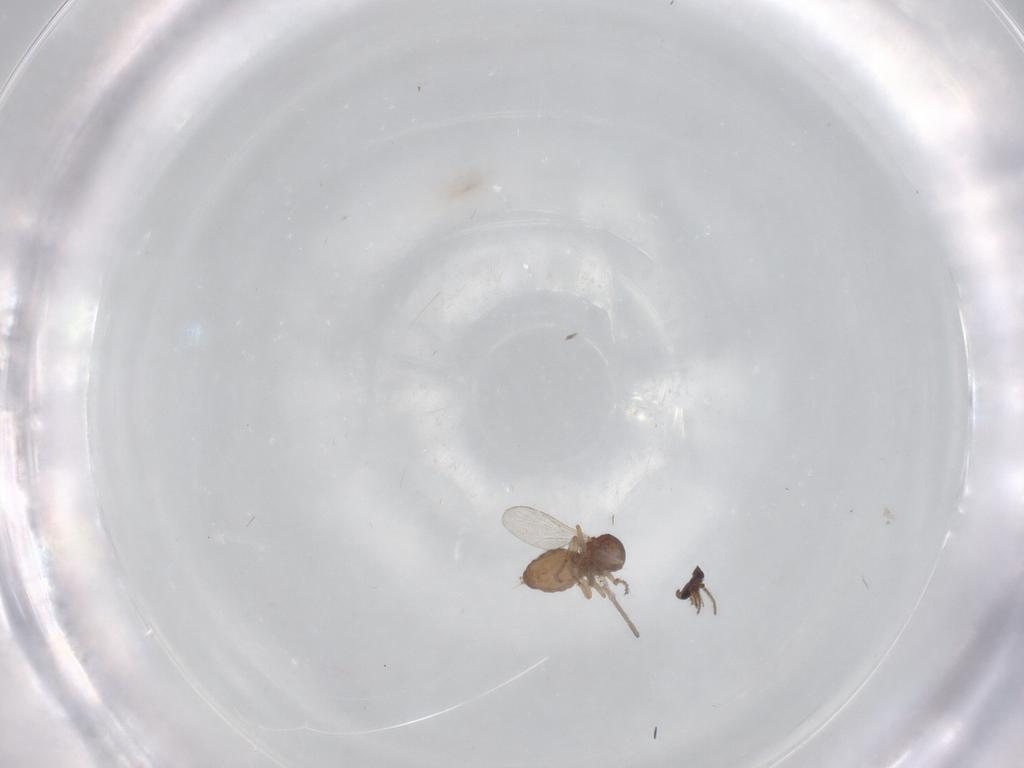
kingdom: Animalia
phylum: Arthropoda
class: Insecta
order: Diptera
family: Ceratopogonidae
